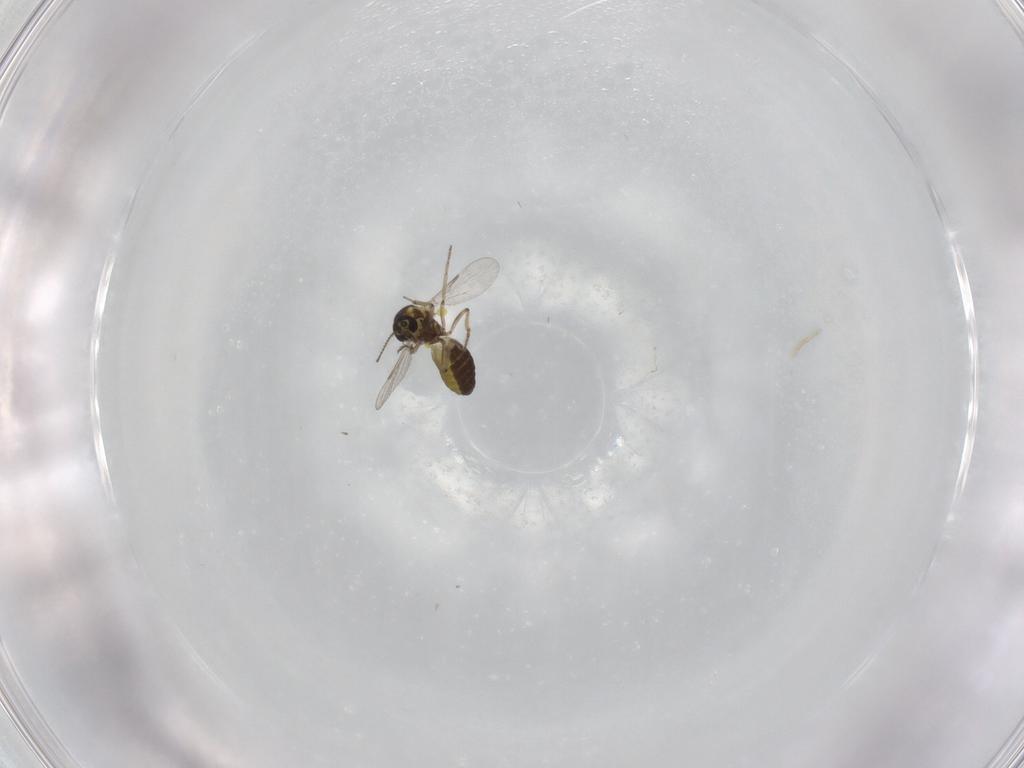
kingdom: Animalia
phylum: Arthropoda
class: Insecta
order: Diptera
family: Ceratopogonidae
